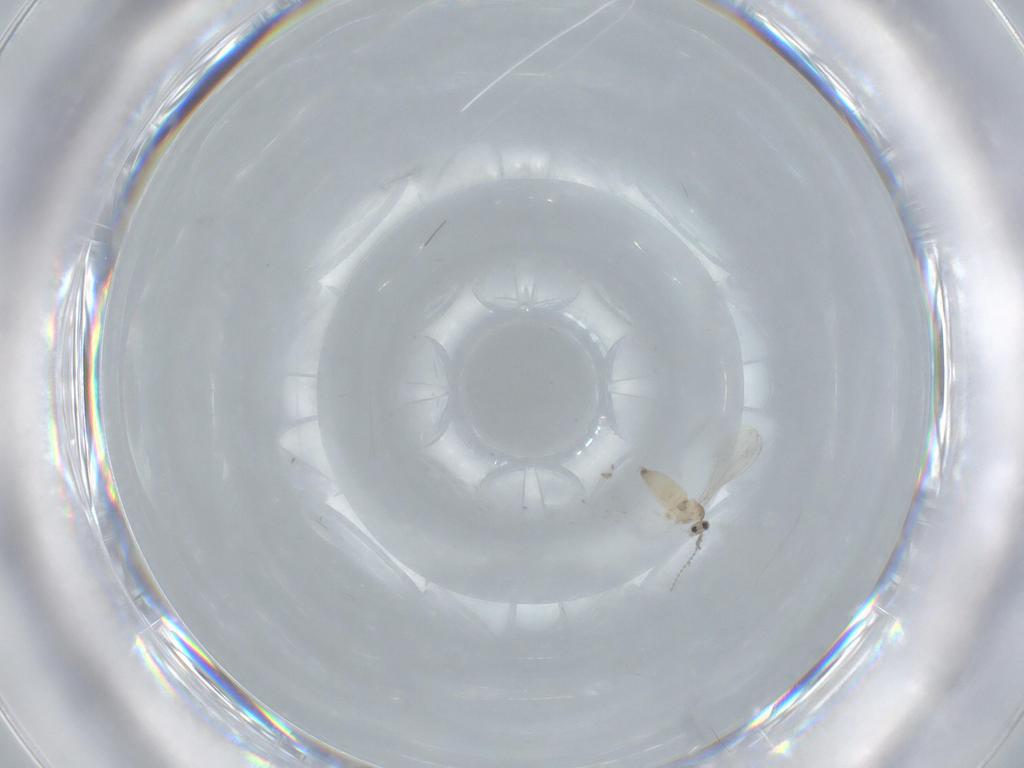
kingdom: Animalia
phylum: Arthropoda
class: Insecta
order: Diptera
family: Cecidomyiidae
